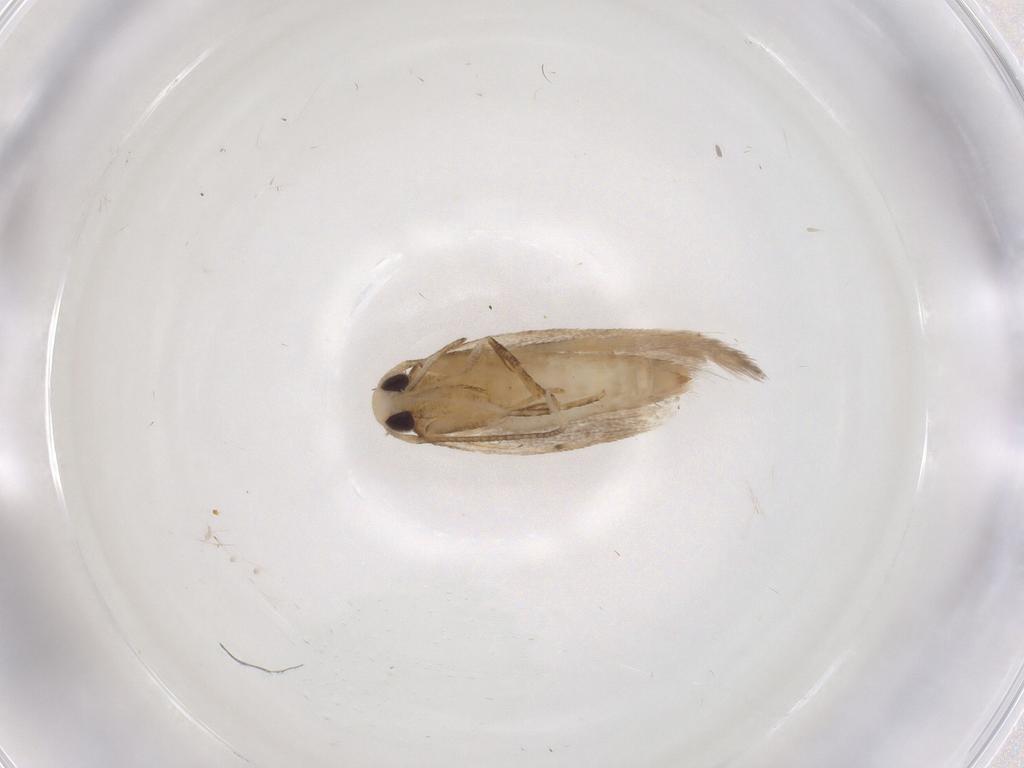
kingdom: Animalia
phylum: Arthropoda
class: Insecta
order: Lepidoptera
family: Cosmopterigidae
